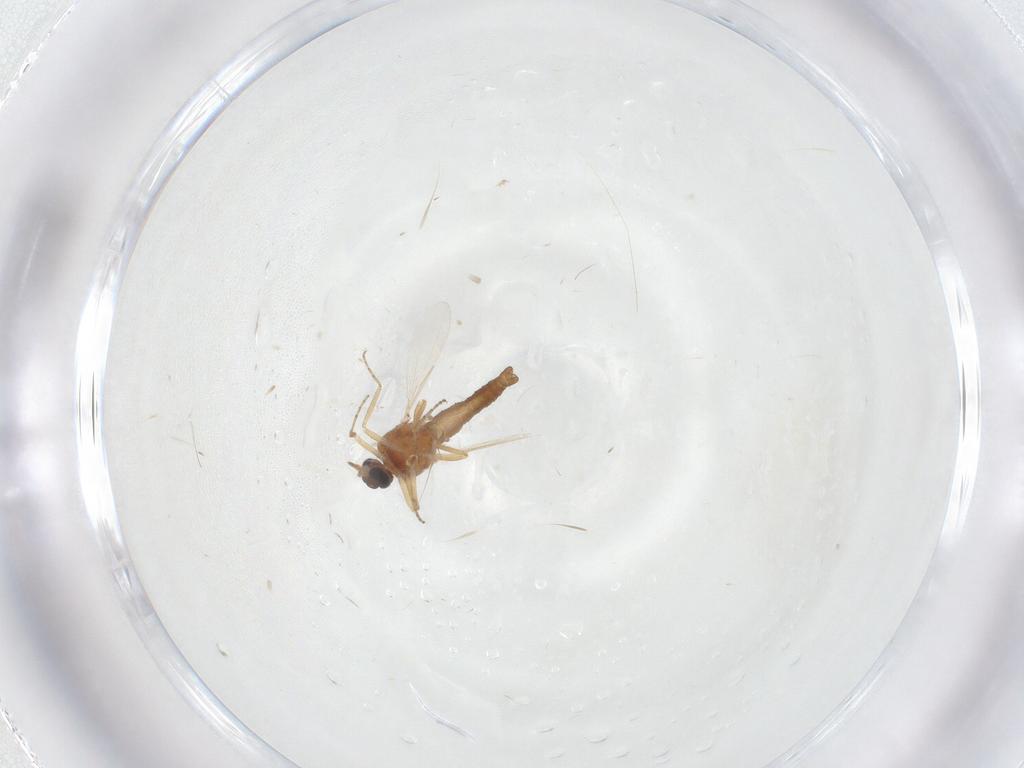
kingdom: Animalia
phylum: Arthropoda
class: Insecta
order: Diptera
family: Ceratopogonidae
